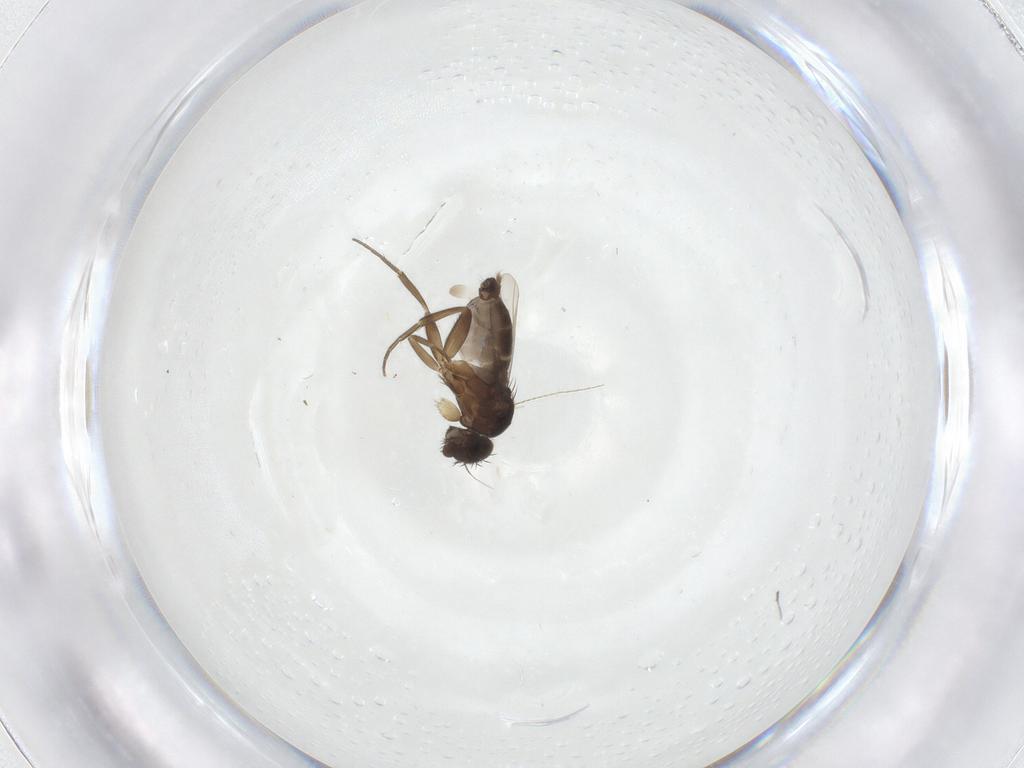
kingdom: Animalia
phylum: Arthropoda
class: Insecta
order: Diptera
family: Phoridae
